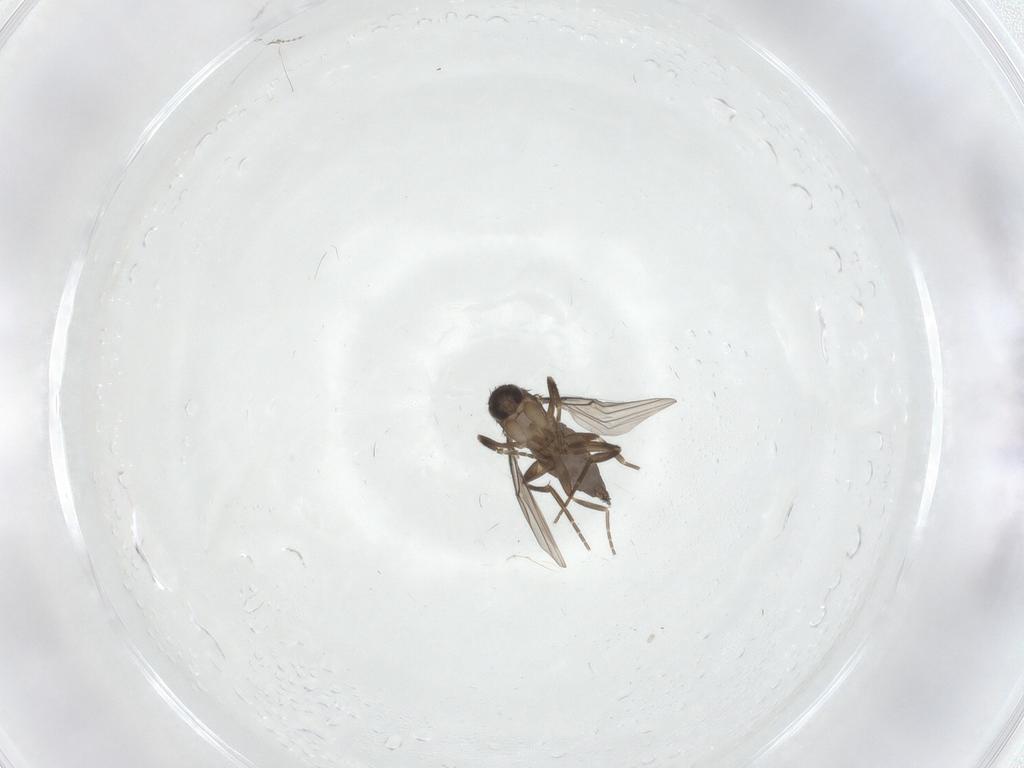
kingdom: Animalia
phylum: Arthropoda
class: Insecta
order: Diptera
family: Cecidomyiidae
